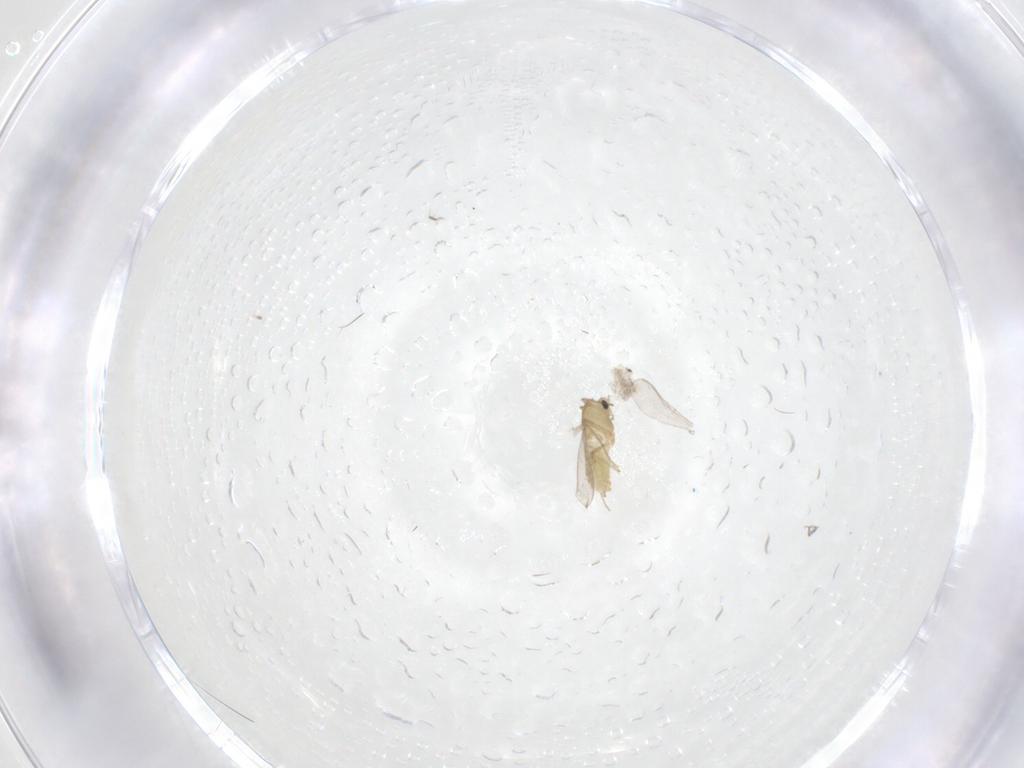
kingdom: Animalia
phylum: Arthropoda
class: Insecta
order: Diptera
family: Chironomidae
